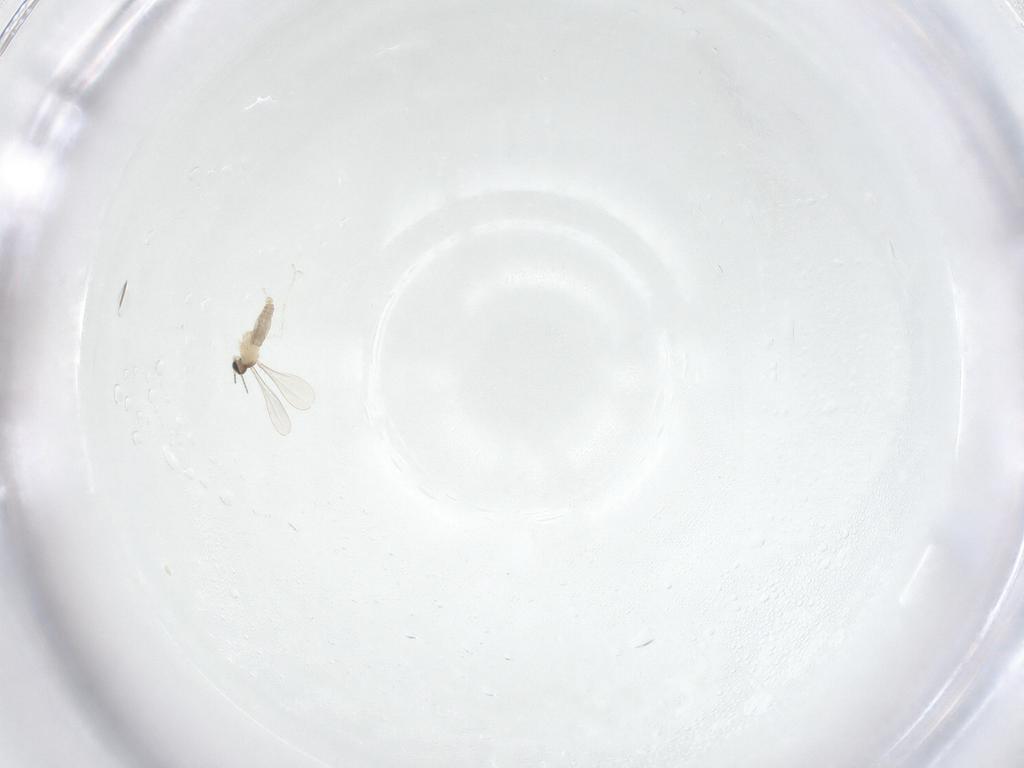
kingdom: Animalia
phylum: Arthropoda
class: Insecta
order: Diptera
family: Phoridae
